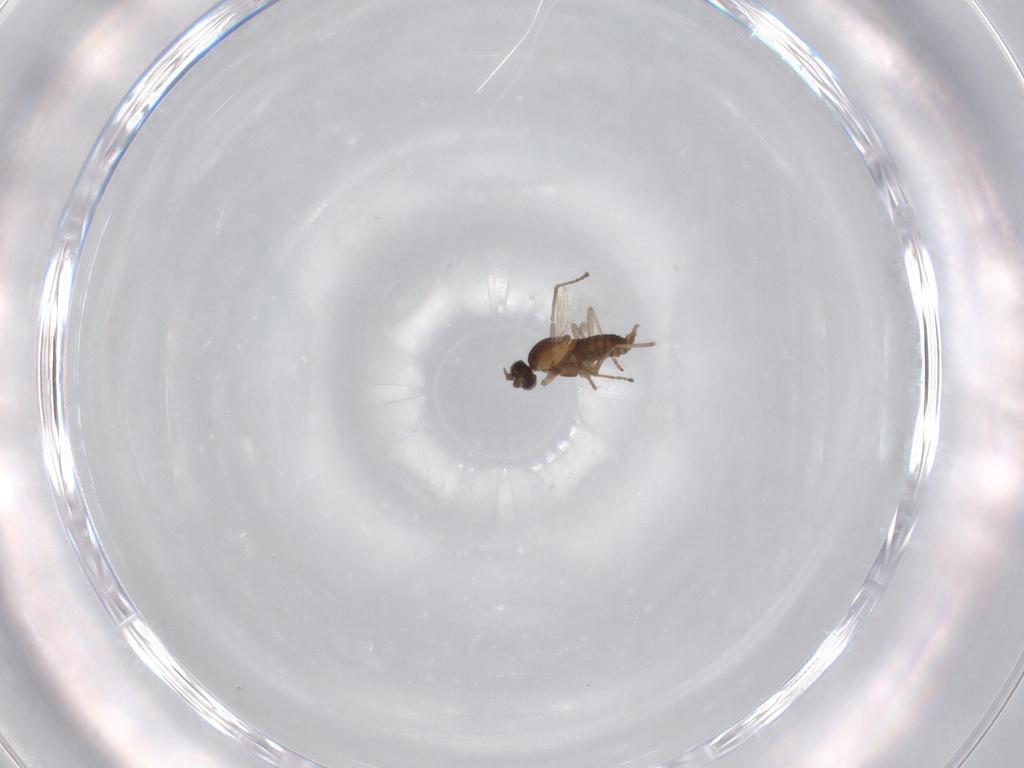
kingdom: Animalia
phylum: Arthropoda
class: Insecta
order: Diptera
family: Cecidomyiidae
